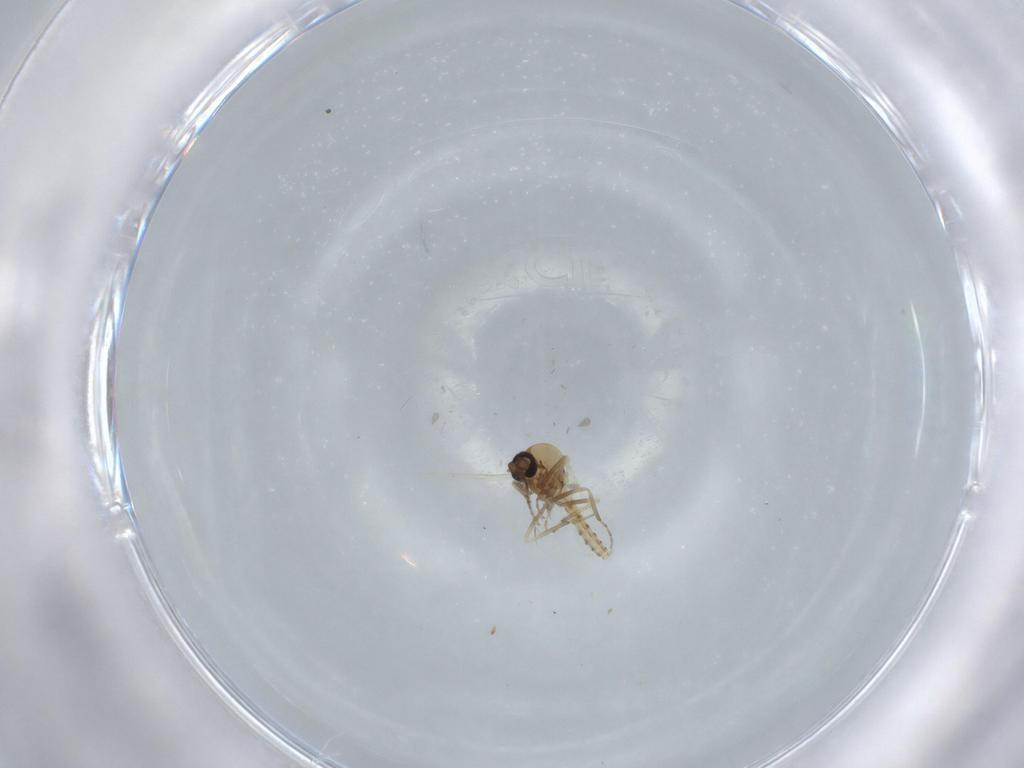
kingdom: Animalia
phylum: Arthropoda
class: Insecta
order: Diptera
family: Ceratopogonidae
